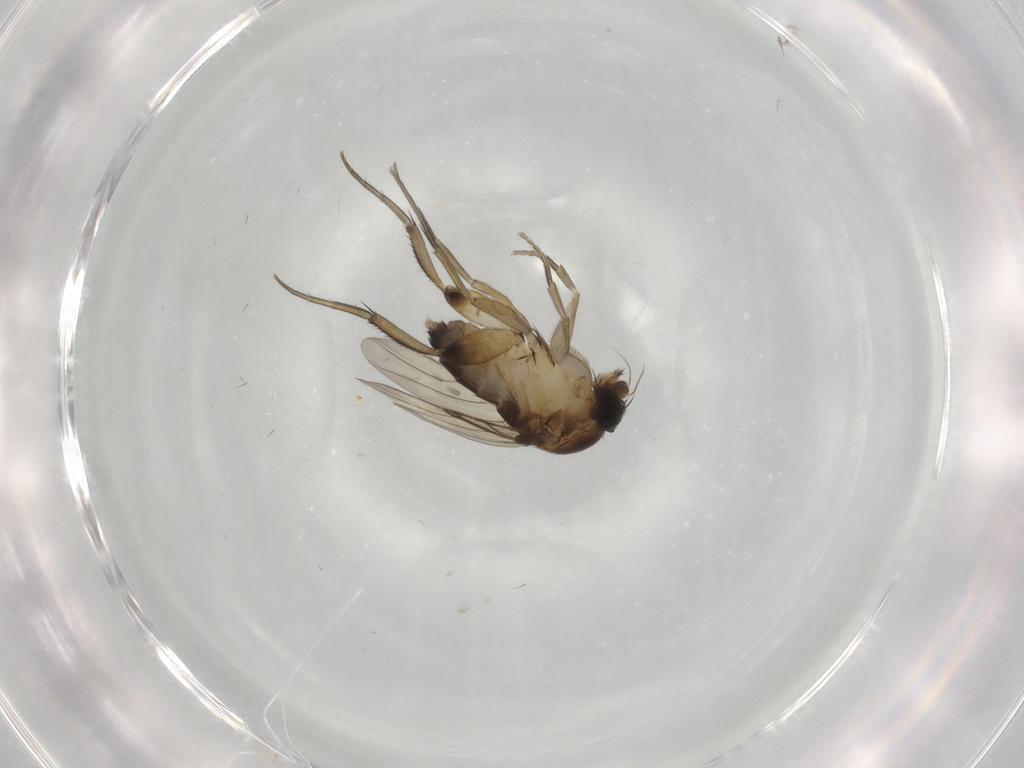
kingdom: Animalia
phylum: Arthropoda
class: Insecta
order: Diptera
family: Phoridae
